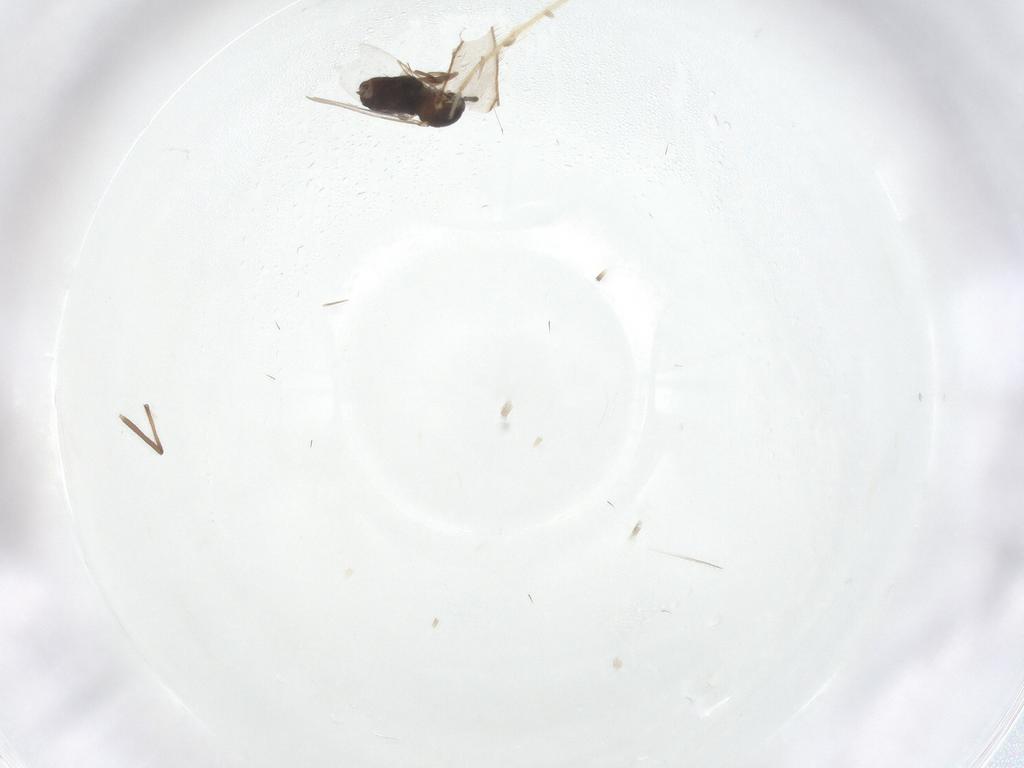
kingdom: Animalia
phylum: Arthropoda
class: Insecta
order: Diptera
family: Scatopsidae
